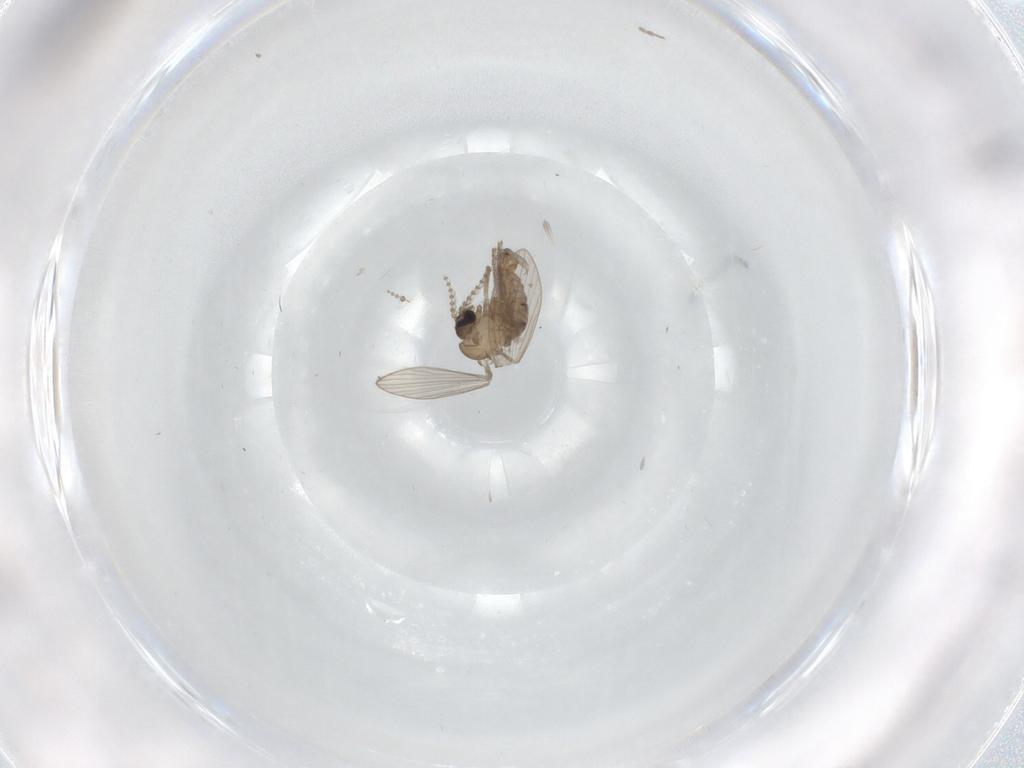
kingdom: Animalia
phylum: Arthropoda
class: Insecta
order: Diptera
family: Psychodidae
